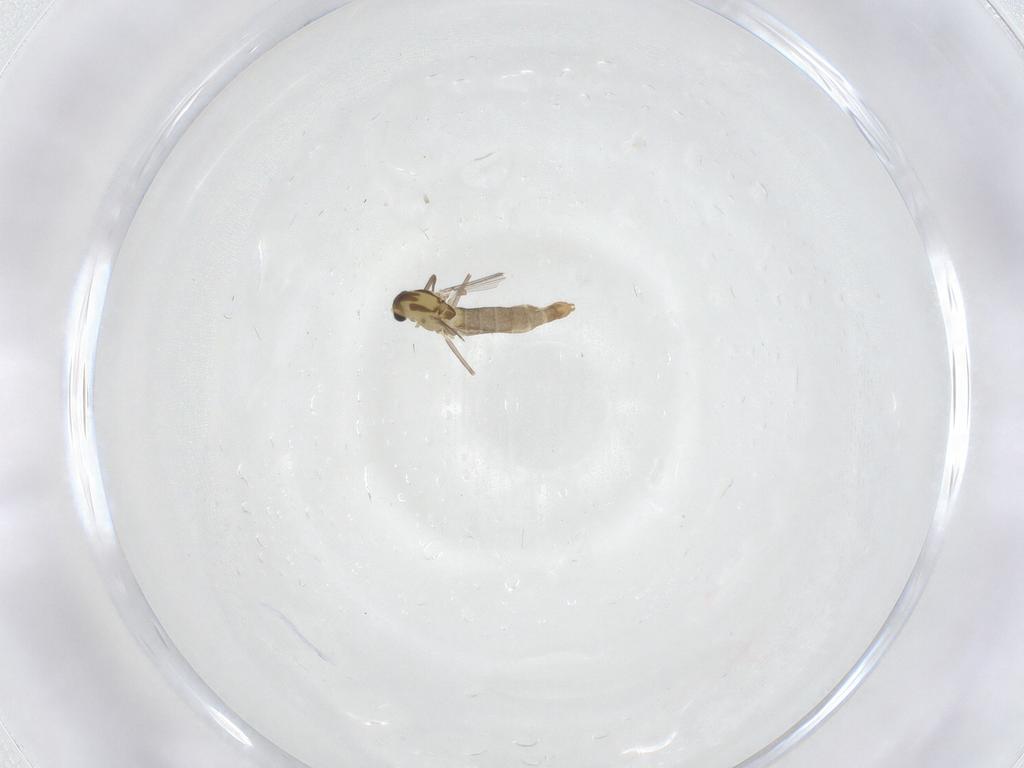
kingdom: Animalia
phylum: Arthropoda
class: Insecta
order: Diptera
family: Chironomidae
